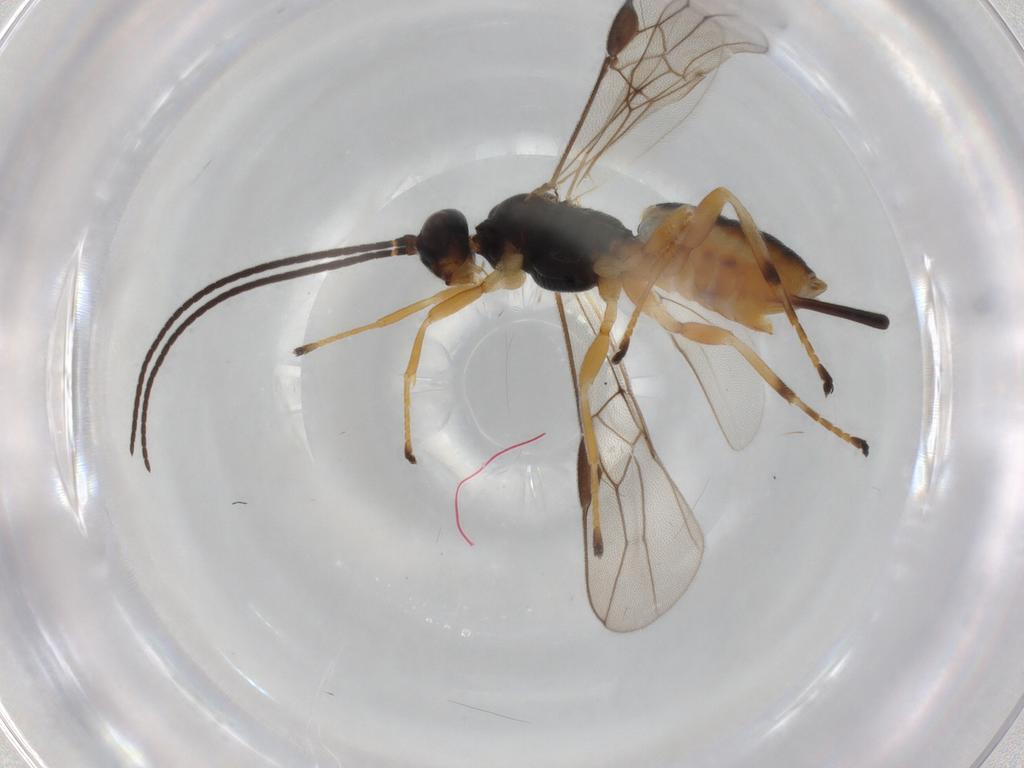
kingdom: Animalia
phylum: Arthropoda
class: Insecta
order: Hymenoptera
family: Braconidae
